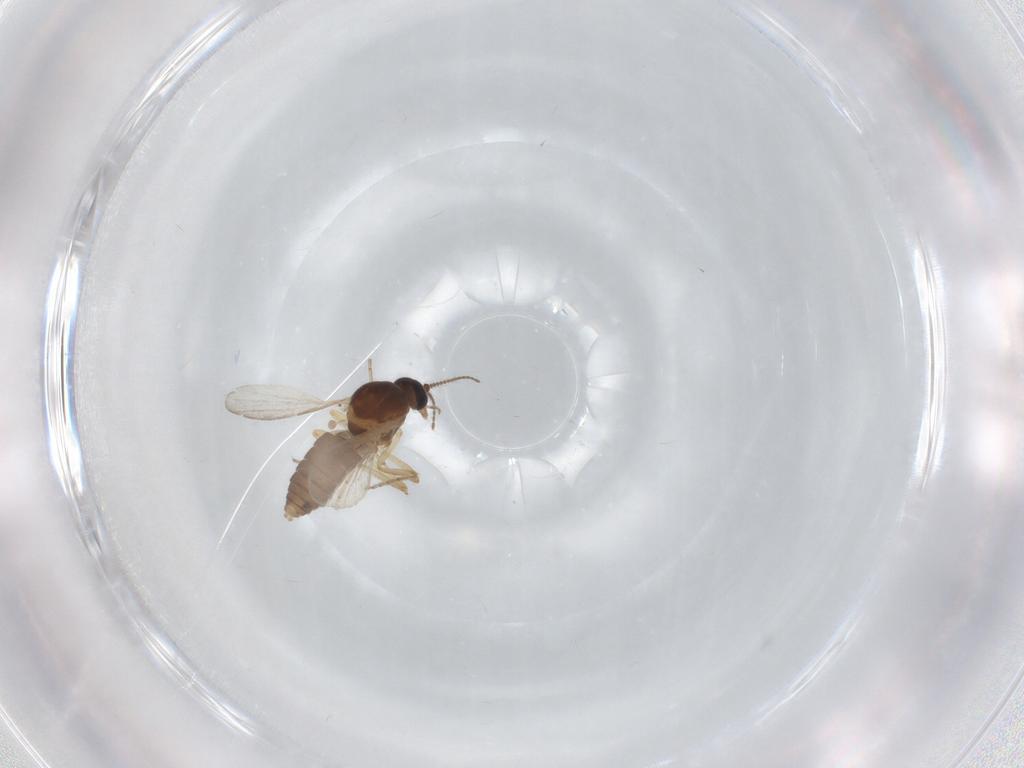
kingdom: Animalia
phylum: Arthropoda
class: Insecta
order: Diptera
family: Ceratopogonidae
